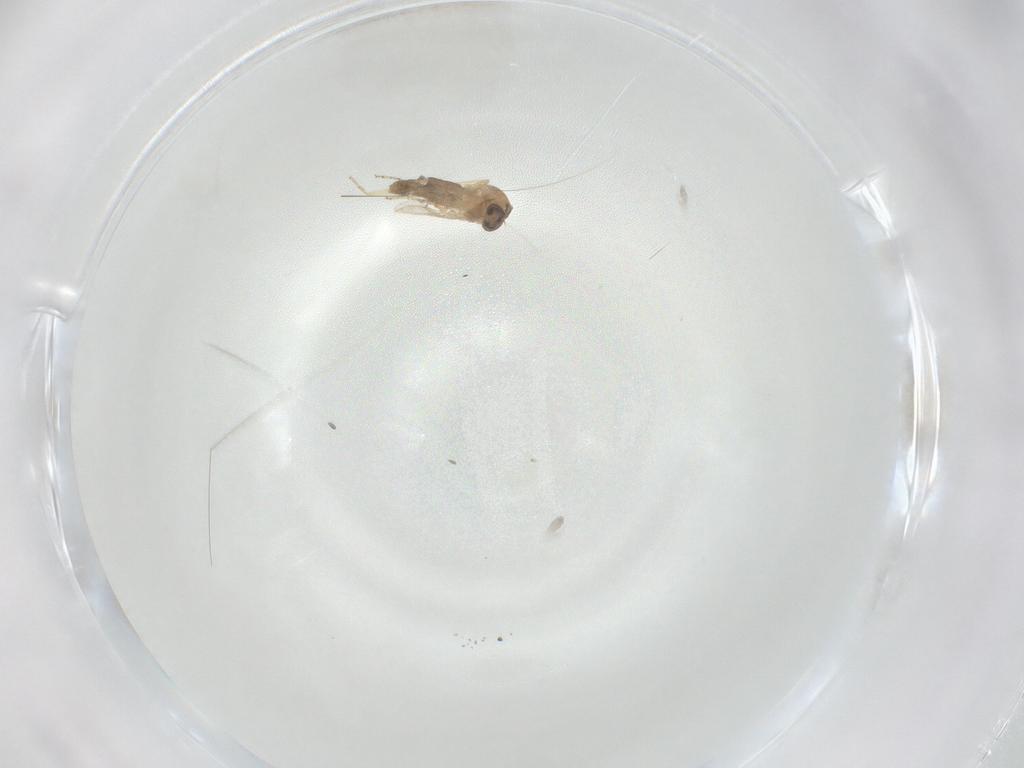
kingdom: Animalia
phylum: Arthropoda
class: Insecta
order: Diptera
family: Ceratopogonidae
